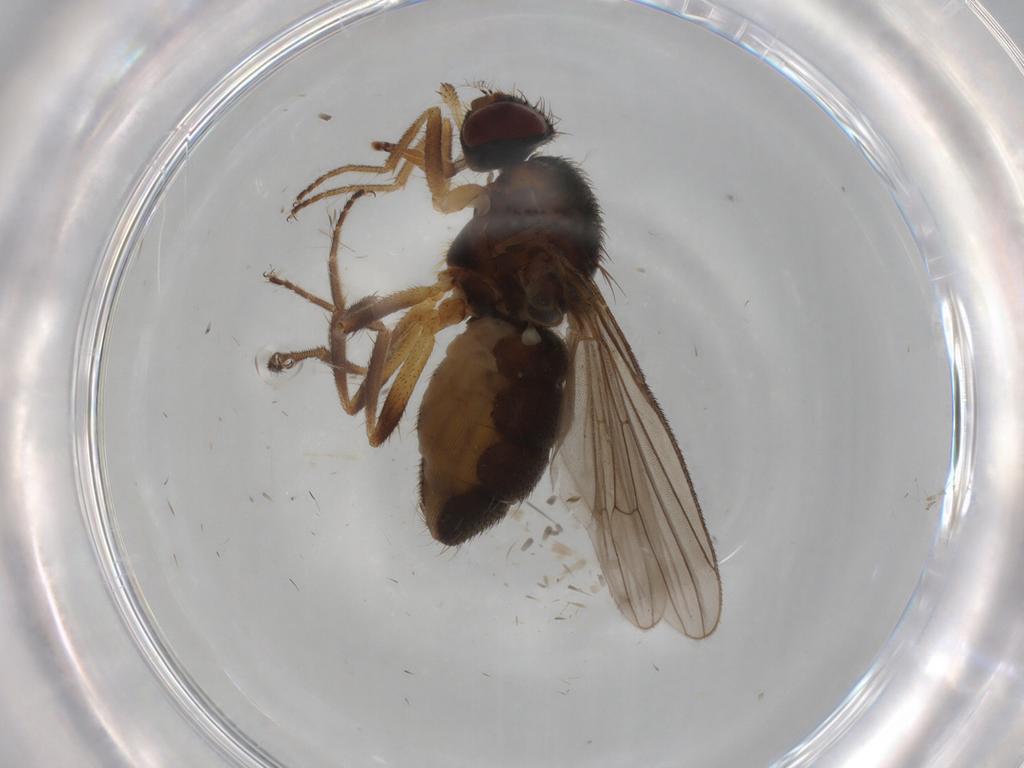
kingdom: Animalia
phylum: Arthropoda
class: Insecta
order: Diptera
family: Muscidae
